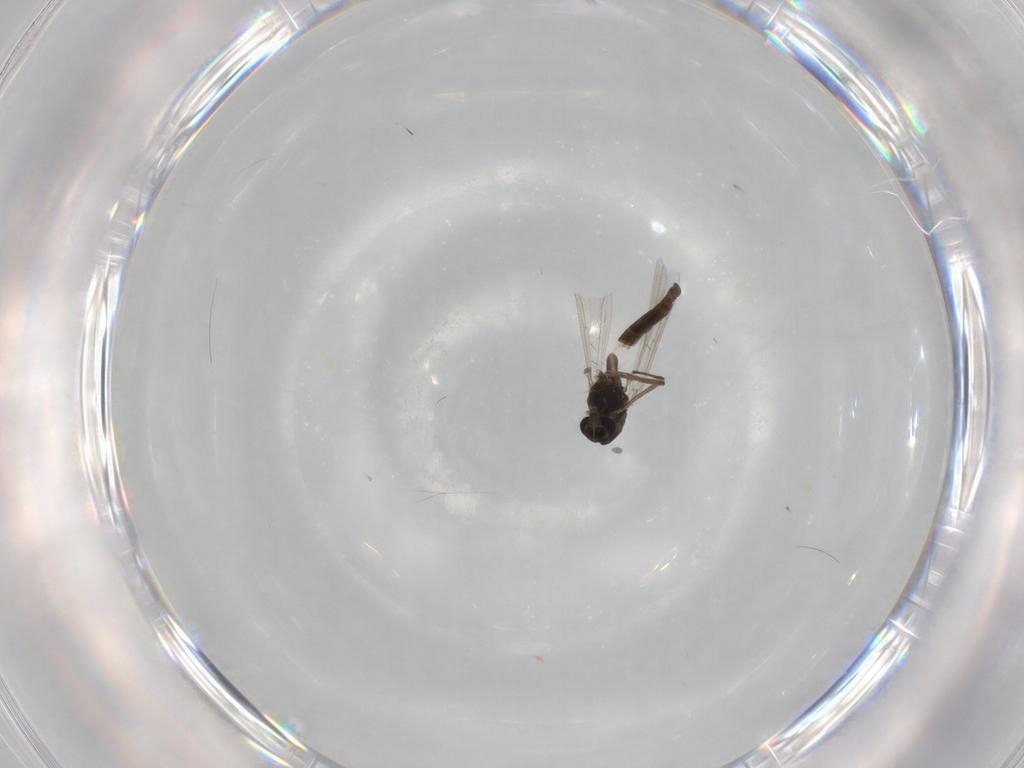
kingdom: Animalia
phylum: Arthropoda
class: Insecta
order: Diptera
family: Chironomidae
